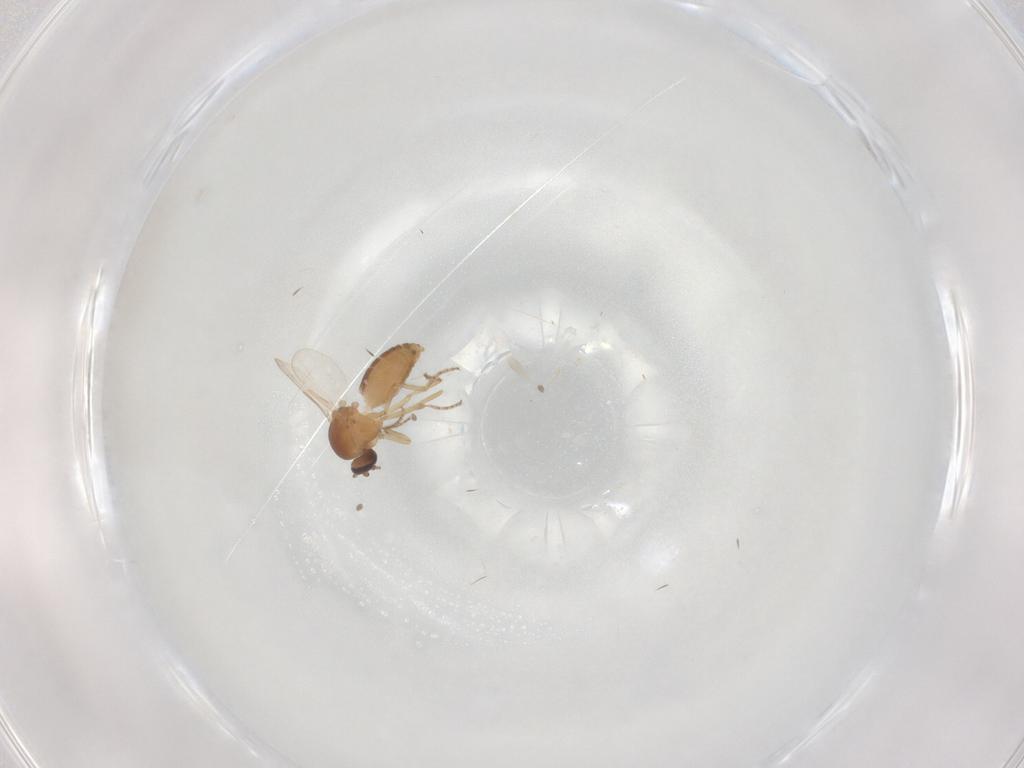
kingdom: Animalia
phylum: Arthropoda
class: Insecta
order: Diptera
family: Ceratopogonidae
